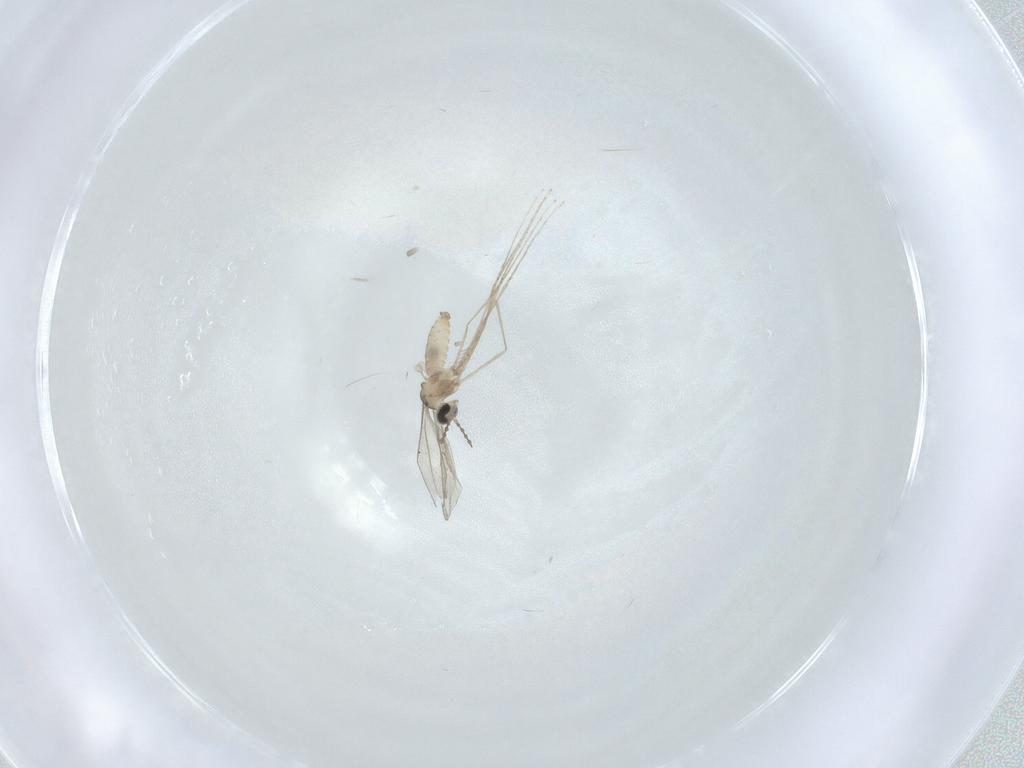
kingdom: Animalia
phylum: Arthropoda
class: Insecta
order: Diptera
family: Cecidomyiidae
